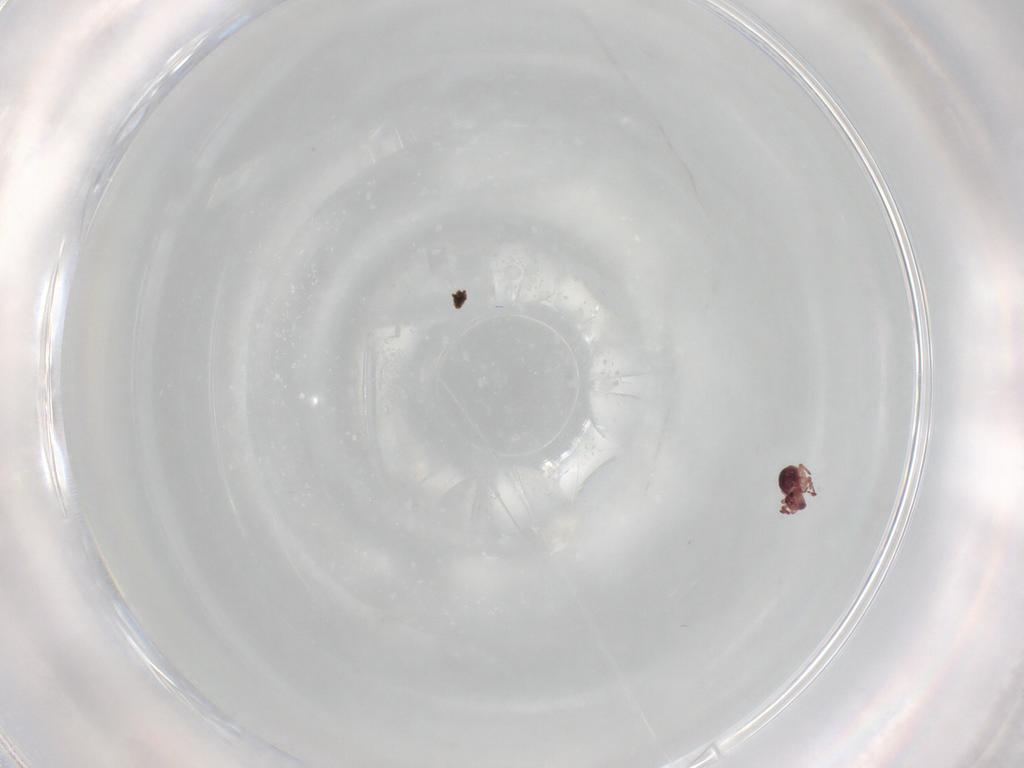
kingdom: Animalia
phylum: Arthropoda
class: Collembola
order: Symphypleona
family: Sminthurididae
